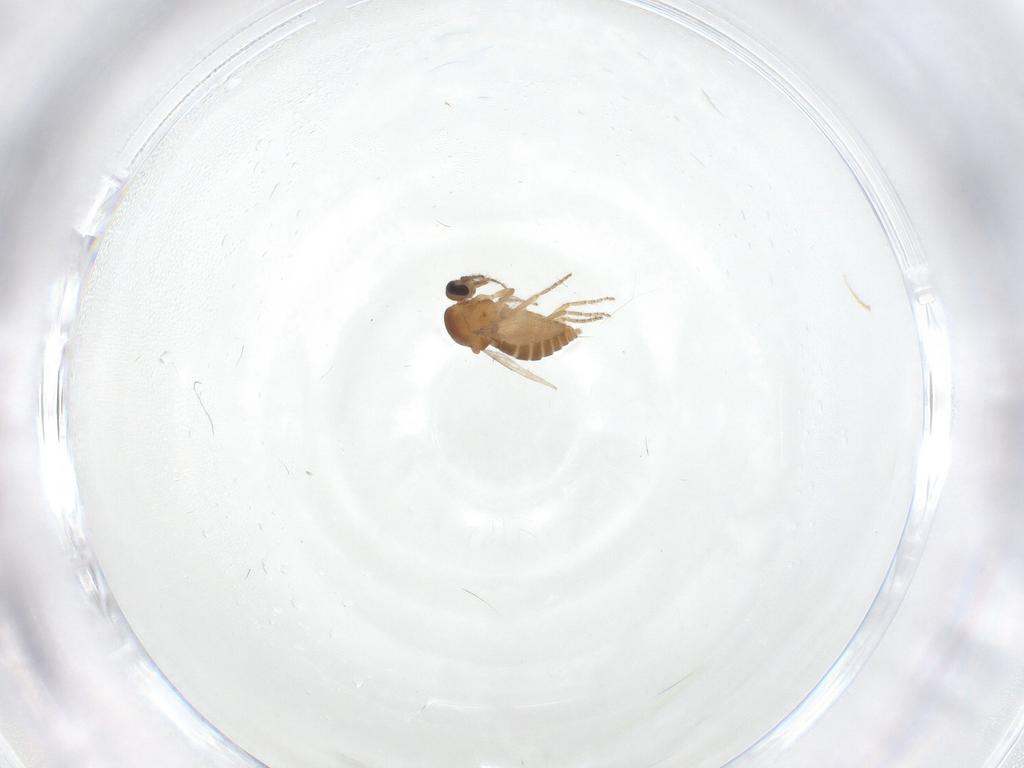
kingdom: Animalia
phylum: Arthropoda
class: Insecta
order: Diptera
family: Ceratopogonidae
